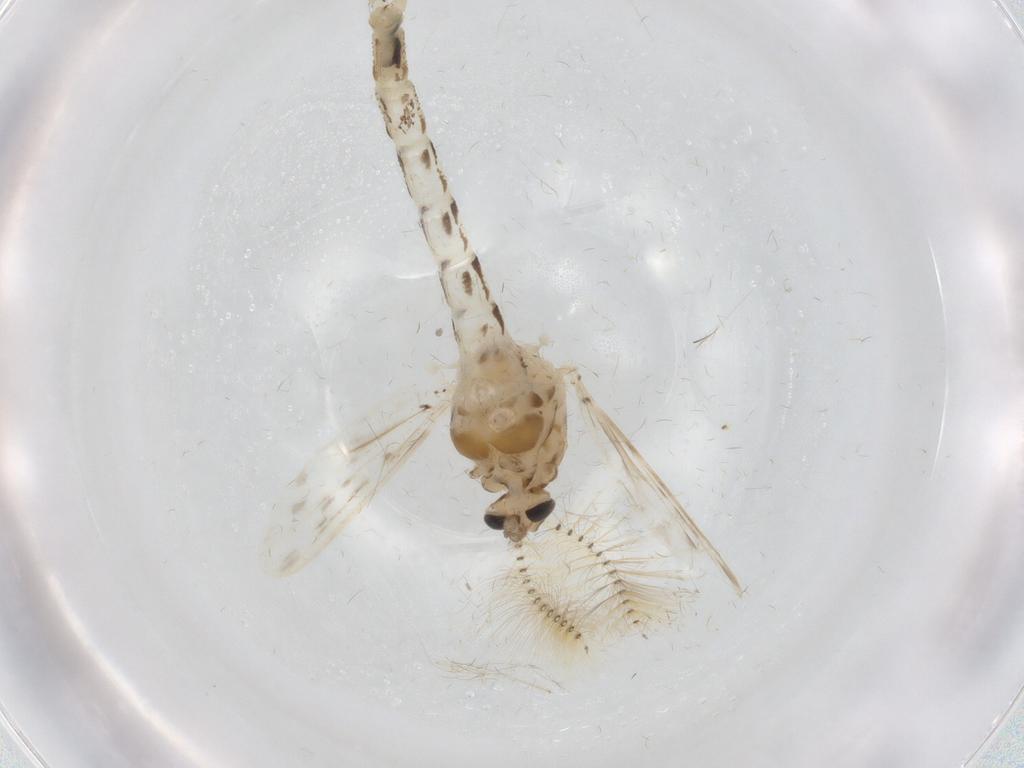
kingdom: Animalia
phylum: Arthropoda
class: Insecta
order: Diptera
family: Chaoboridae
